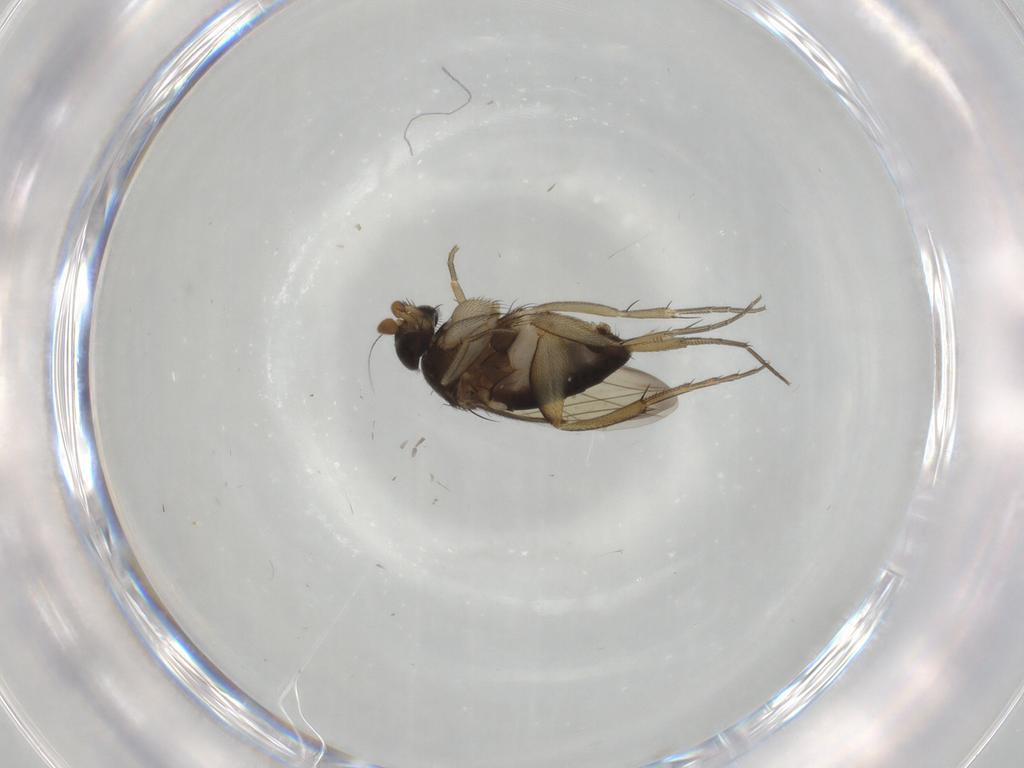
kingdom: Animalia
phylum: Arthropoda
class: Insecta
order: Diptera
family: Phoridae
